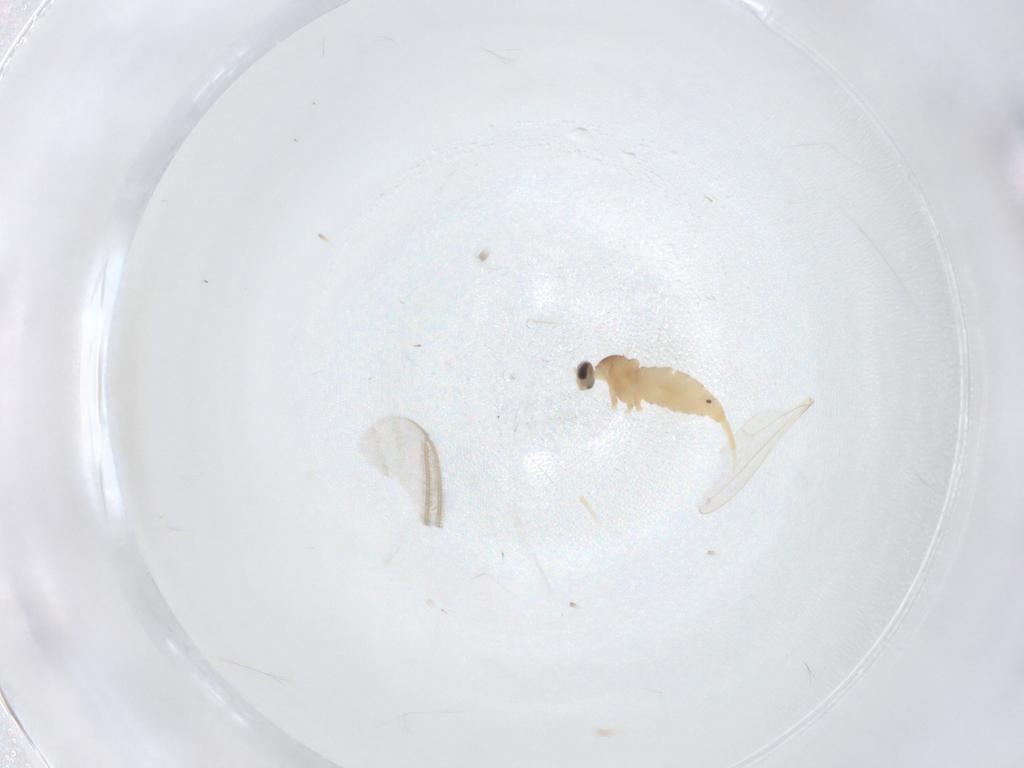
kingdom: Animalia
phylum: Arthropoda
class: Insecta
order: Diptera
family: Cecidomyiidae
